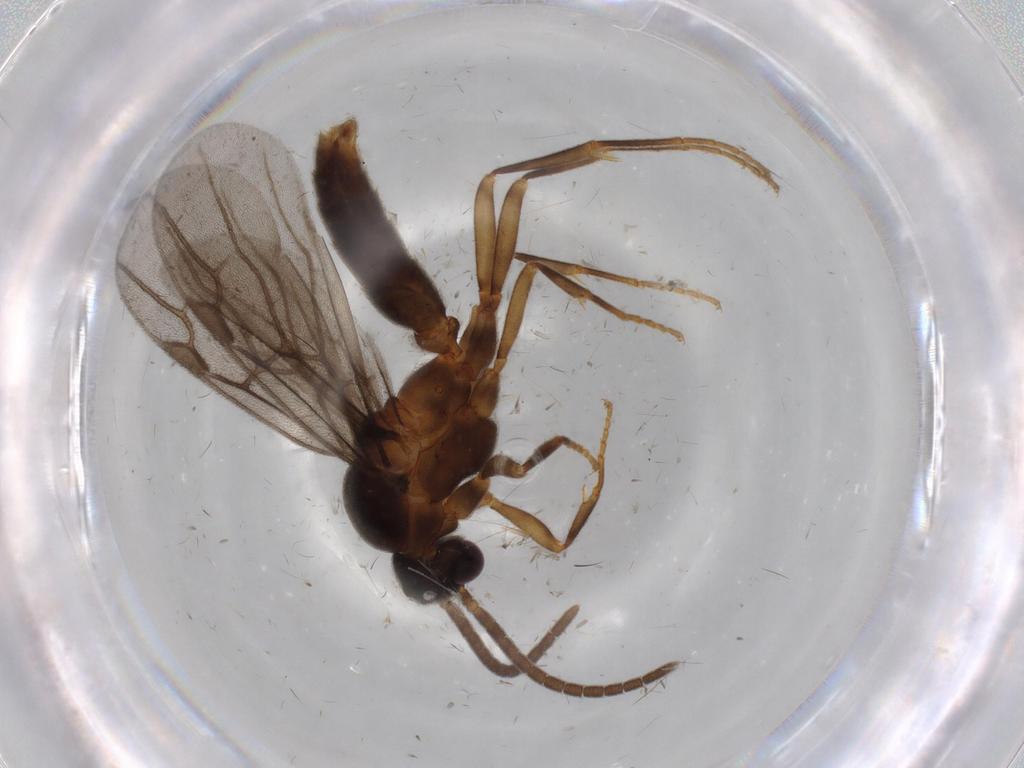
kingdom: Animalia
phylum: Arthropoda
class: Insecta
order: Hymenoptera
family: Formicidae
